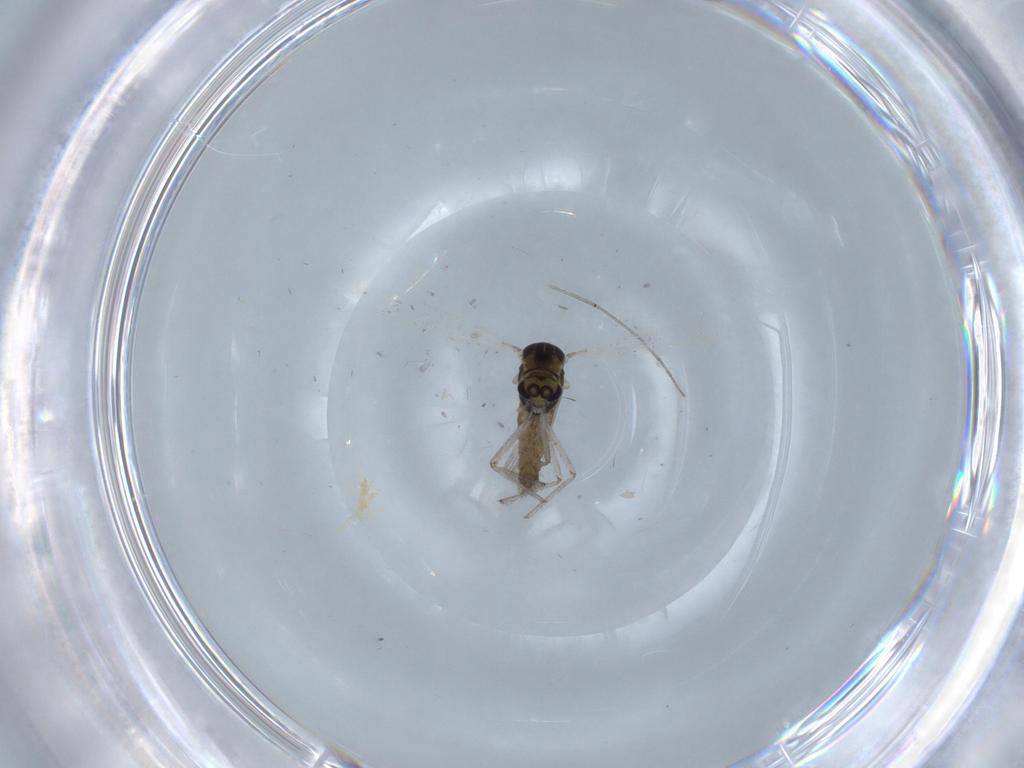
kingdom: Animalia
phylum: Arthropoda
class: Insecta
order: Diptera
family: Chironomidae
